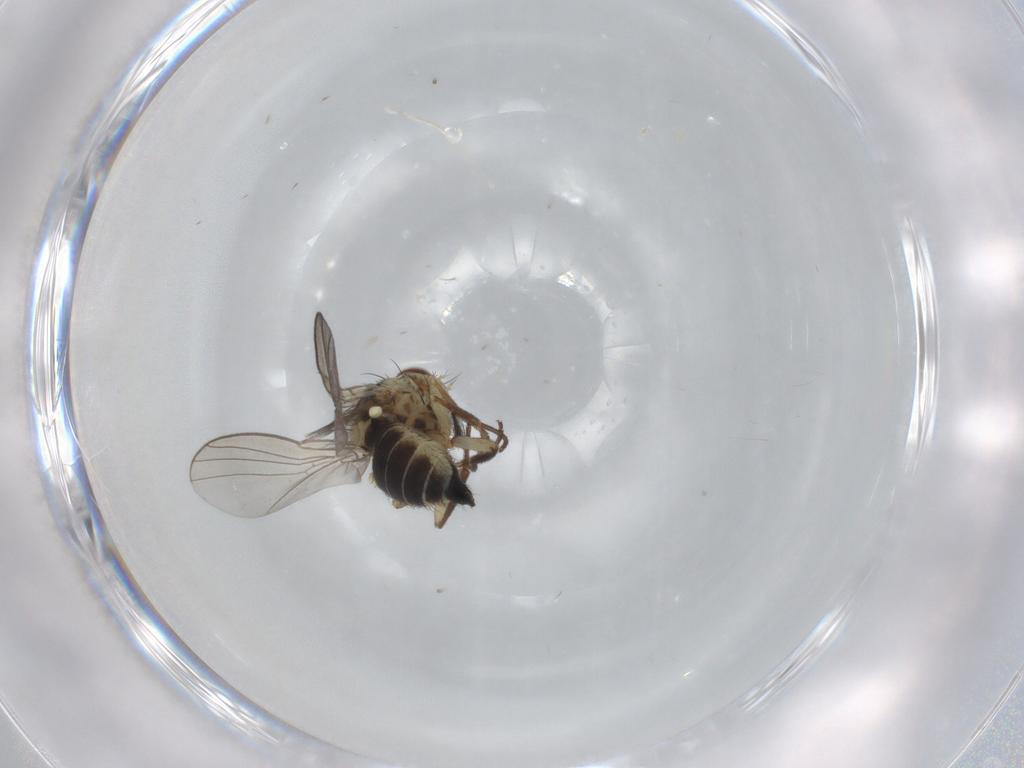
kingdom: Animalia
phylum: Arthropoda
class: Insecta
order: Diptera
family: Agromyzidae
